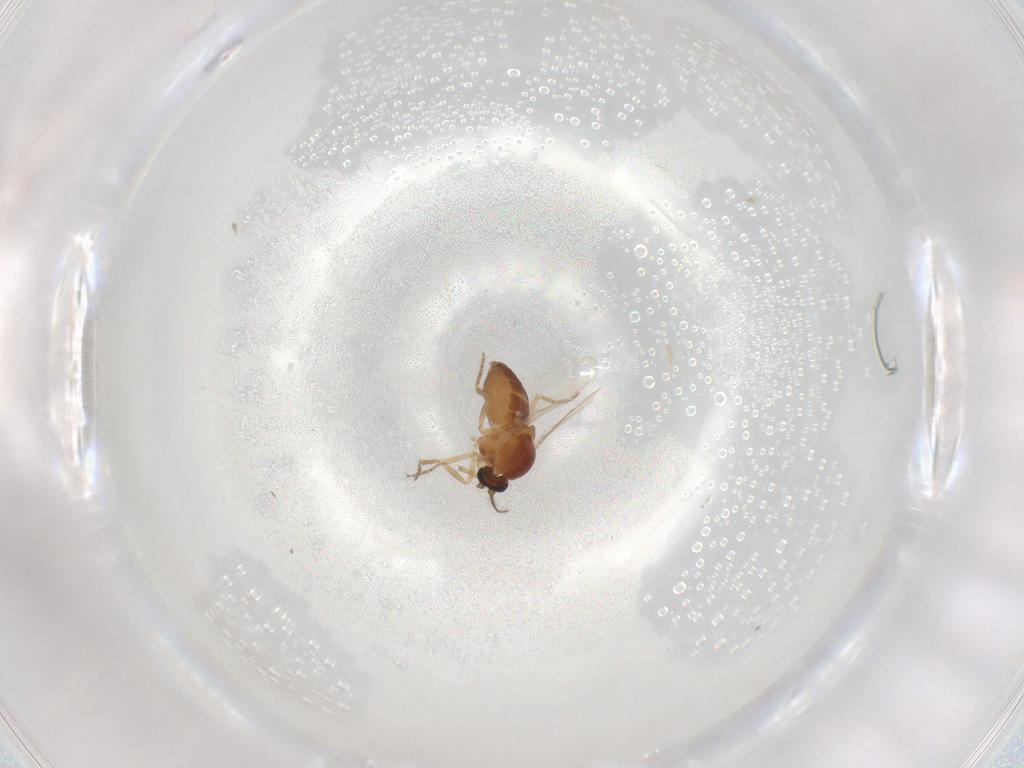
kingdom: Animalia
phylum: Arthropoda
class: Insecta
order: Diptera
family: Ceratopogonidae
